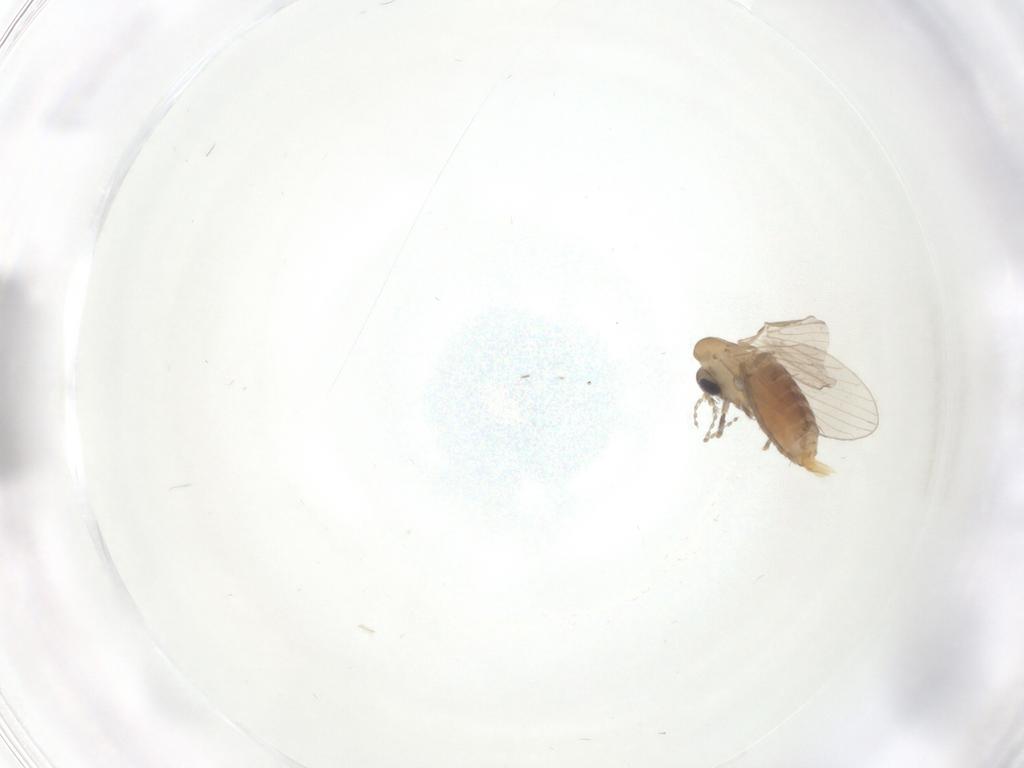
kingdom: Animalia
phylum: Arthropoda
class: Insecta
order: Diptera
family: Psychodidae
